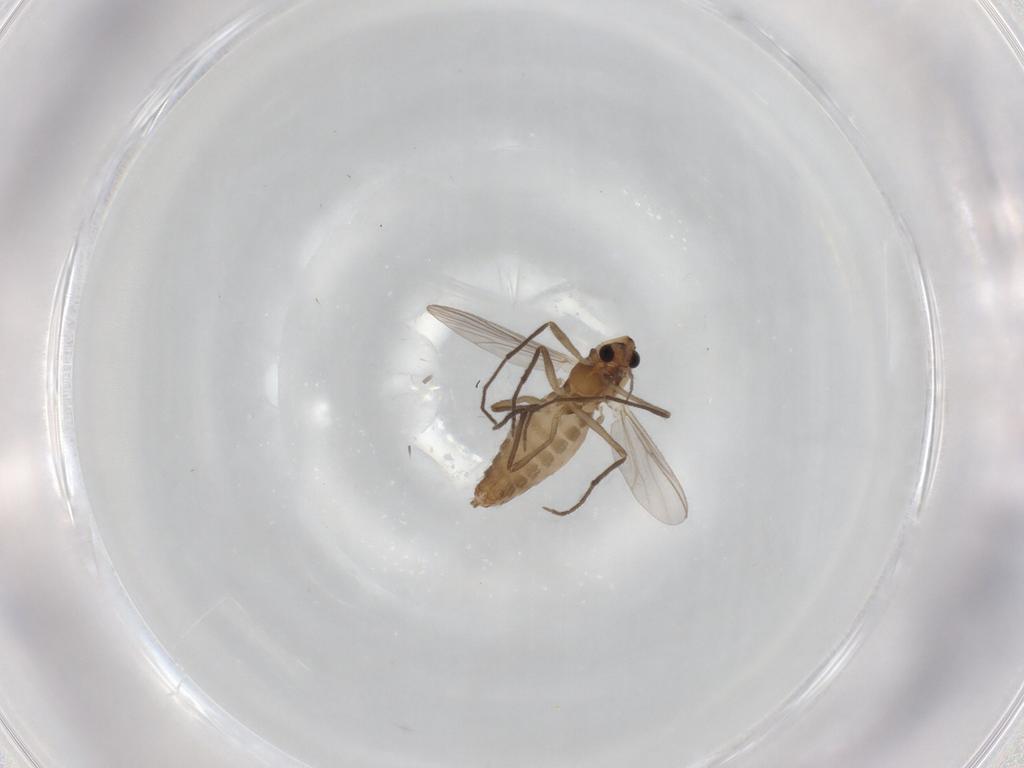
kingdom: Animalia
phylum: Arthropoda
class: Insecta
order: Diptera
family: Chironomidae
